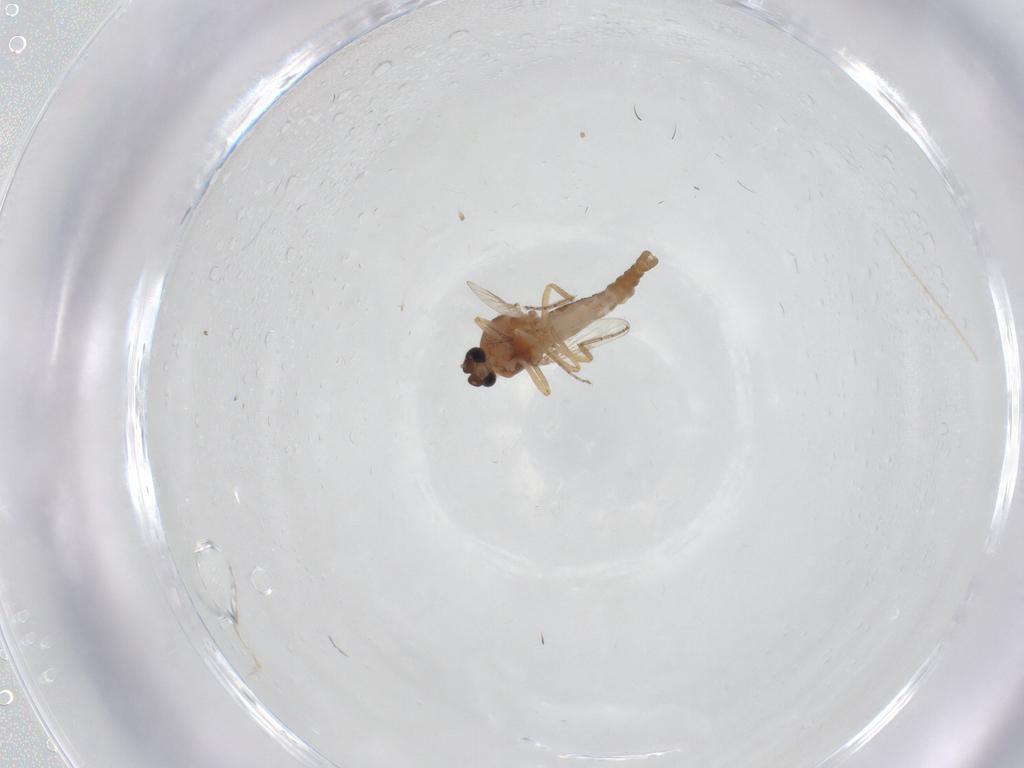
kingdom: Animalia
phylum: Arthropoda
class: Insecta
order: Diptera
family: Ceratopogonidae
